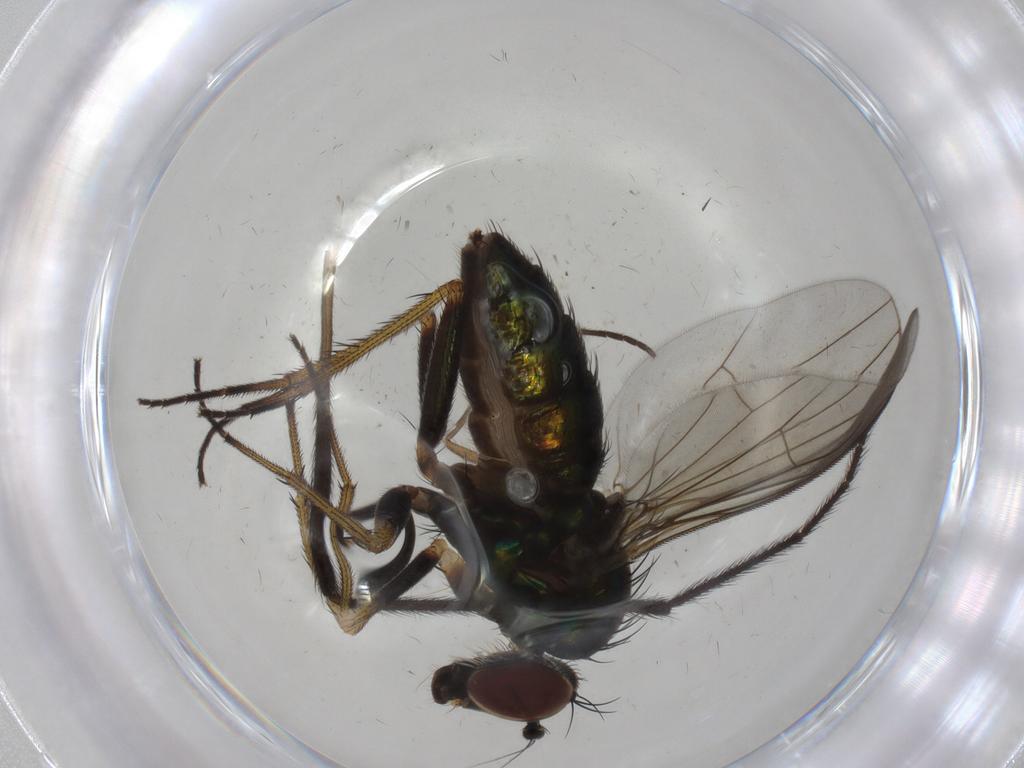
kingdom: Animalia
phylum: Arthropoda
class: Insecta
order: Diptera
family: Dolichopodidae
